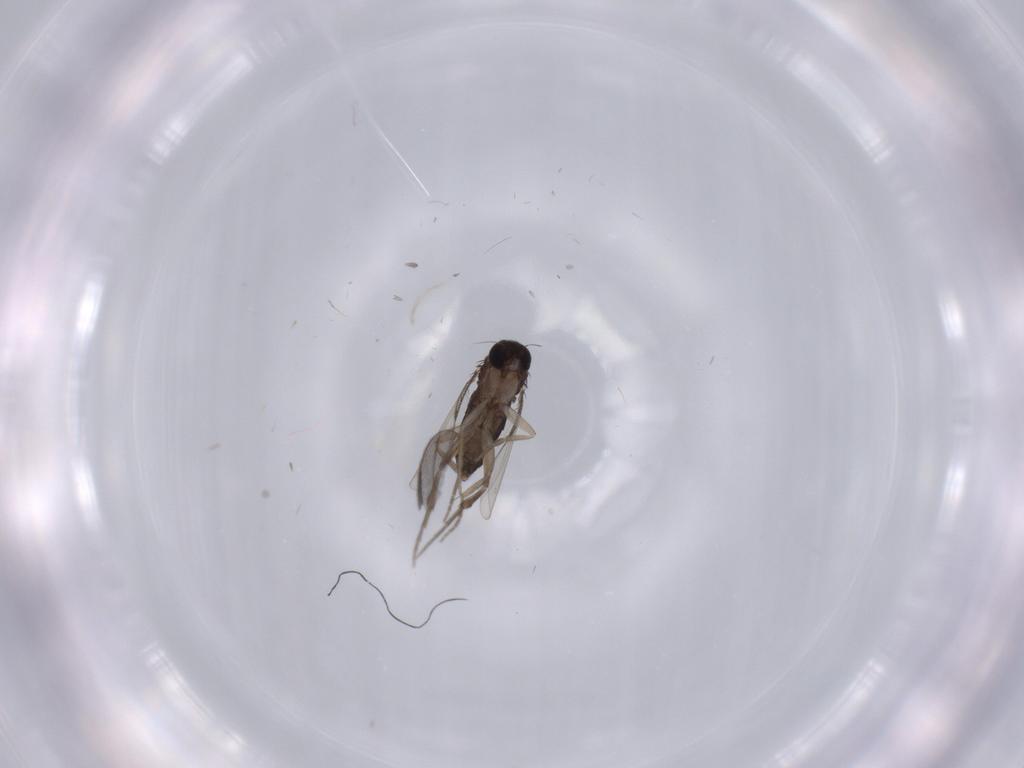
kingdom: Animalia
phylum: Arthropoda
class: Insecta
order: Diptera
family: Phoridae
